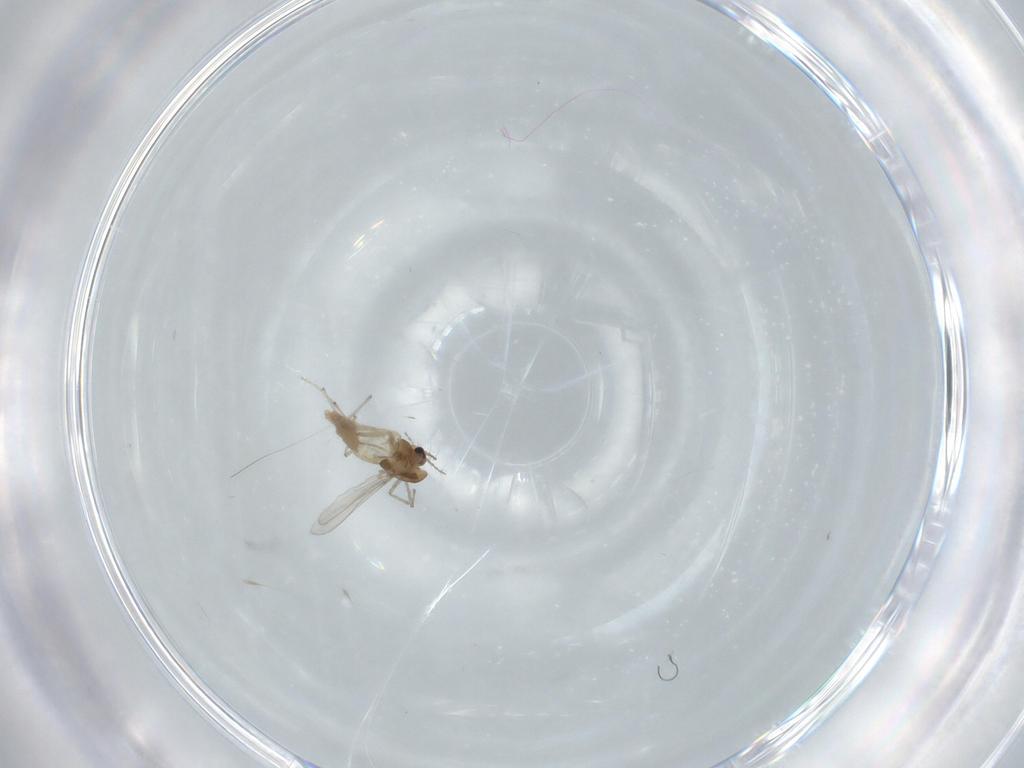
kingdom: Animalia
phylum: Arthropoda
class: Insecta
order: Diptera
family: Chironomidae
